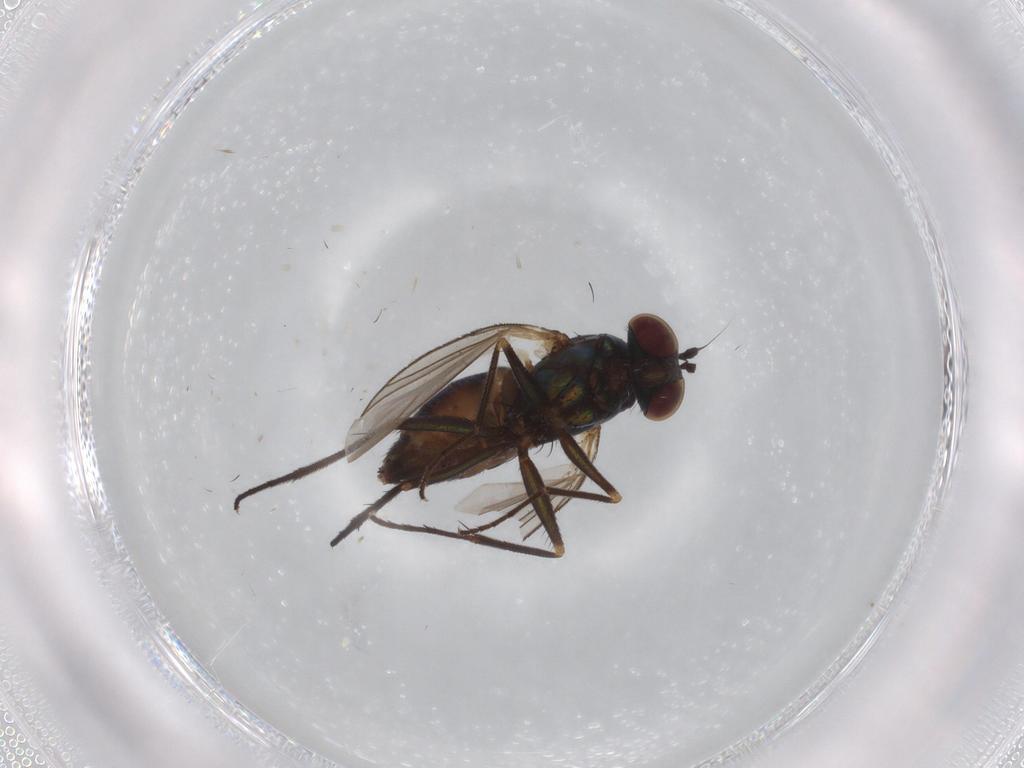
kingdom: Animalia
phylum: Arthropoda
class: Insecta
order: Diptera
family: Dolichopodidae
